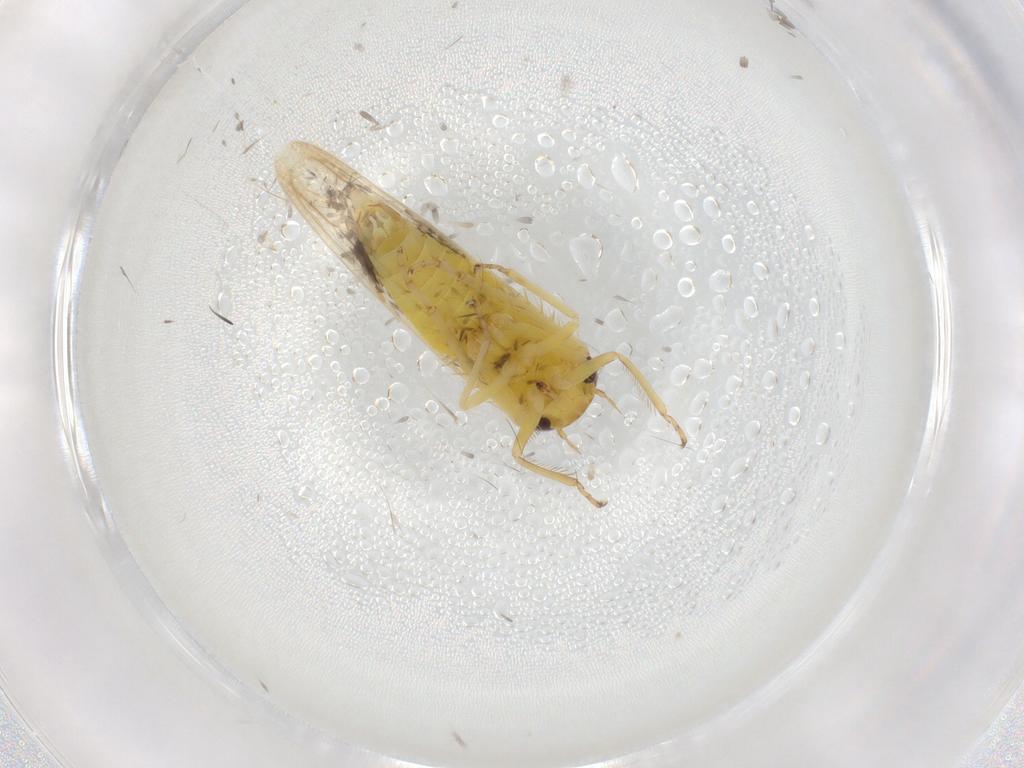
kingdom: Animalia
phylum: Arthropoda
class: Insecta
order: Hemiptera
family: Cicadellidae
